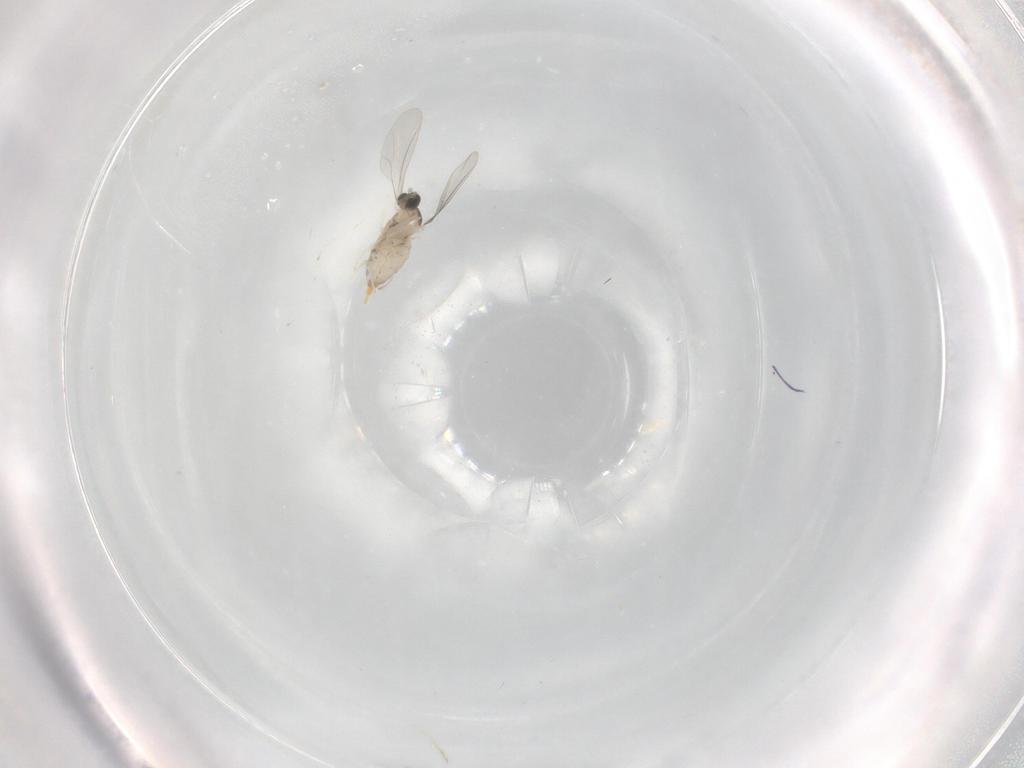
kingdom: Animalia
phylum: Arthropoda
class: Insecta
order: Diptera
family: Cecidomyiidae
